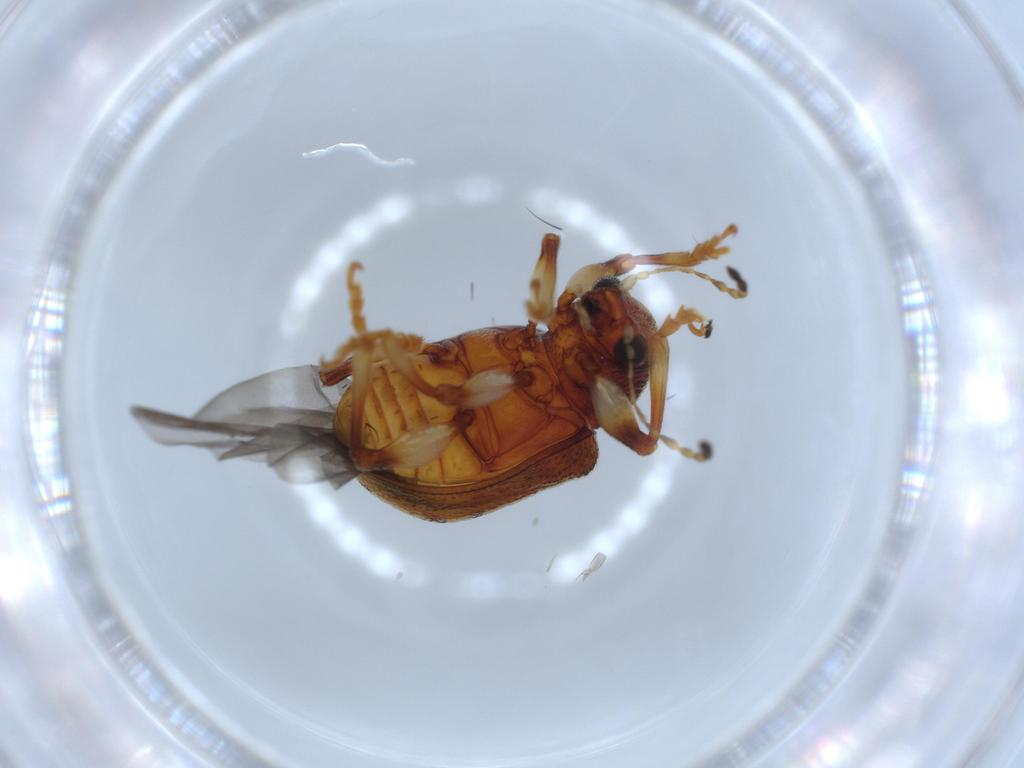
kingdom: Animalia
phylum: Arthropoda
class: Insecta
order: Coleoptera
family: Chrysomelidae
